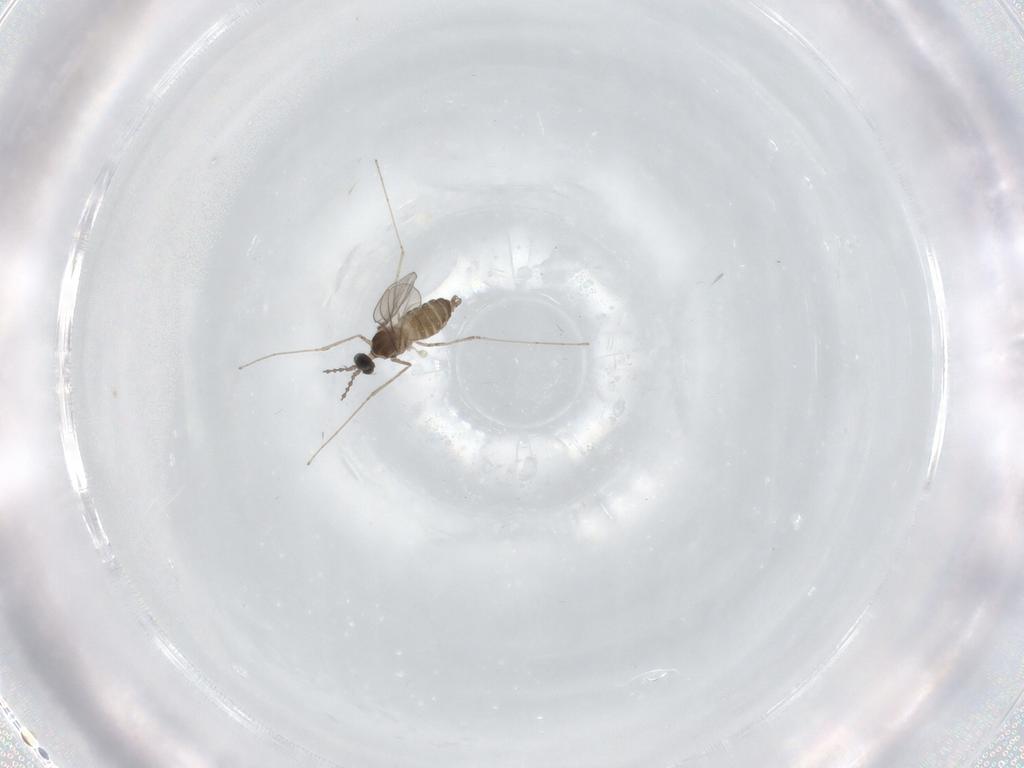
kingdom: Animalia
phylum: Arthropoda
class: Insecta
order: Diptera
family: Cecidomyiidae
